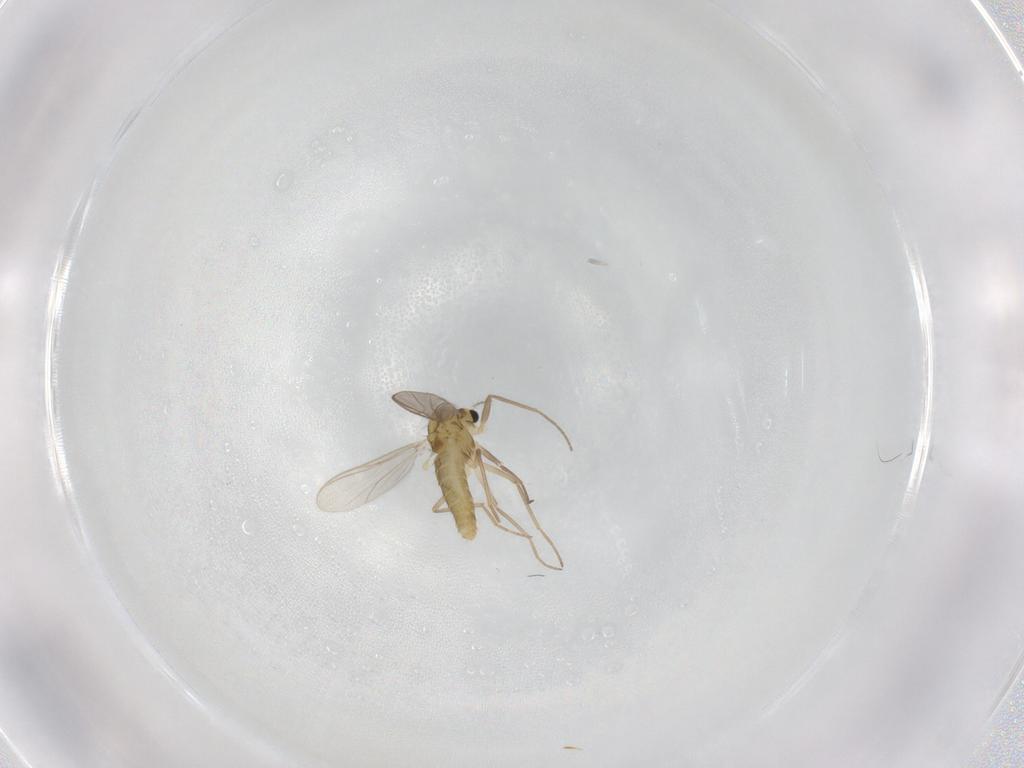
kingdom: Animalia
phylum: Arthropoda
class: Insecta
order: Diptera
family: Chironomidae
